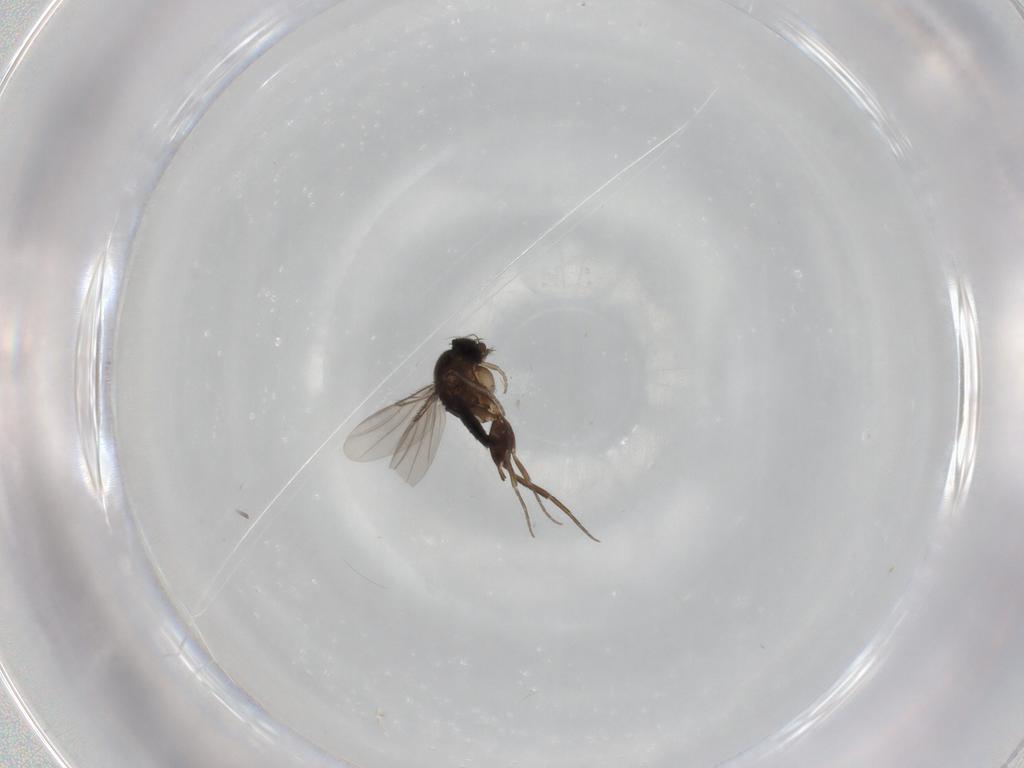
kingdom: Animalia
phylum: Arthropoda
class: Insecta
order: Diptera
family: Phoridae
